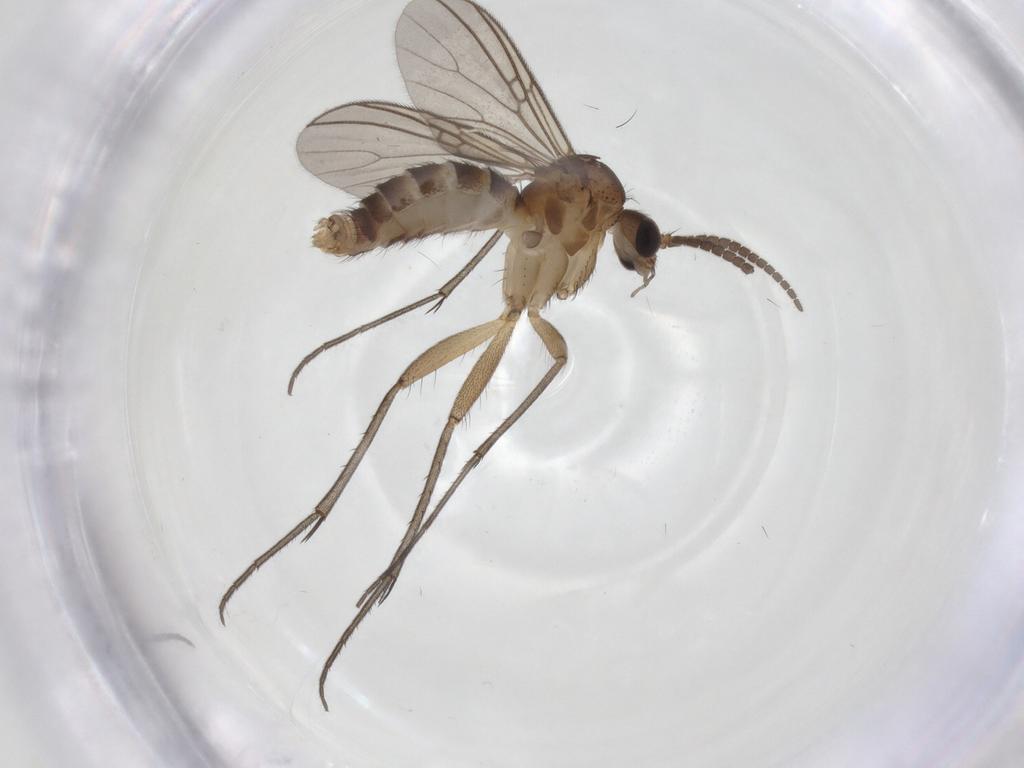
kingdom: Animalia
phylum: Arthropoda
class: Insecta
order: Diptera
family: Cecidomyiidae
